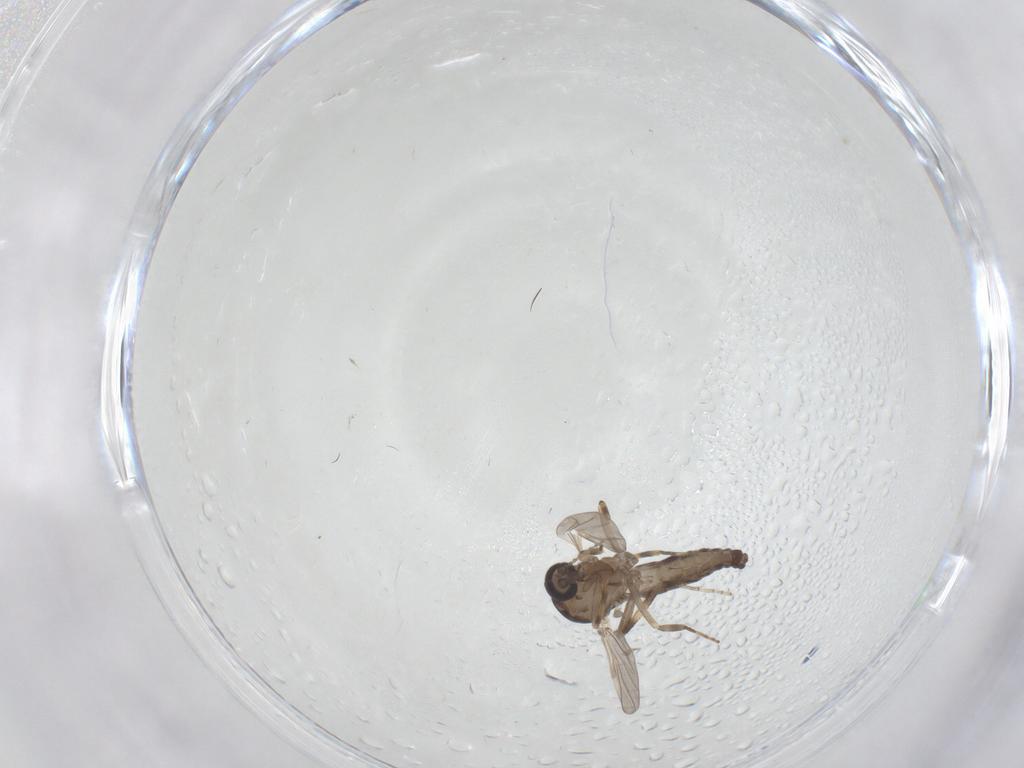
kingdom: Animalia
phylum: Arthropoda
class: Insecta
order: Diptera
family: Ceratopogonidae
